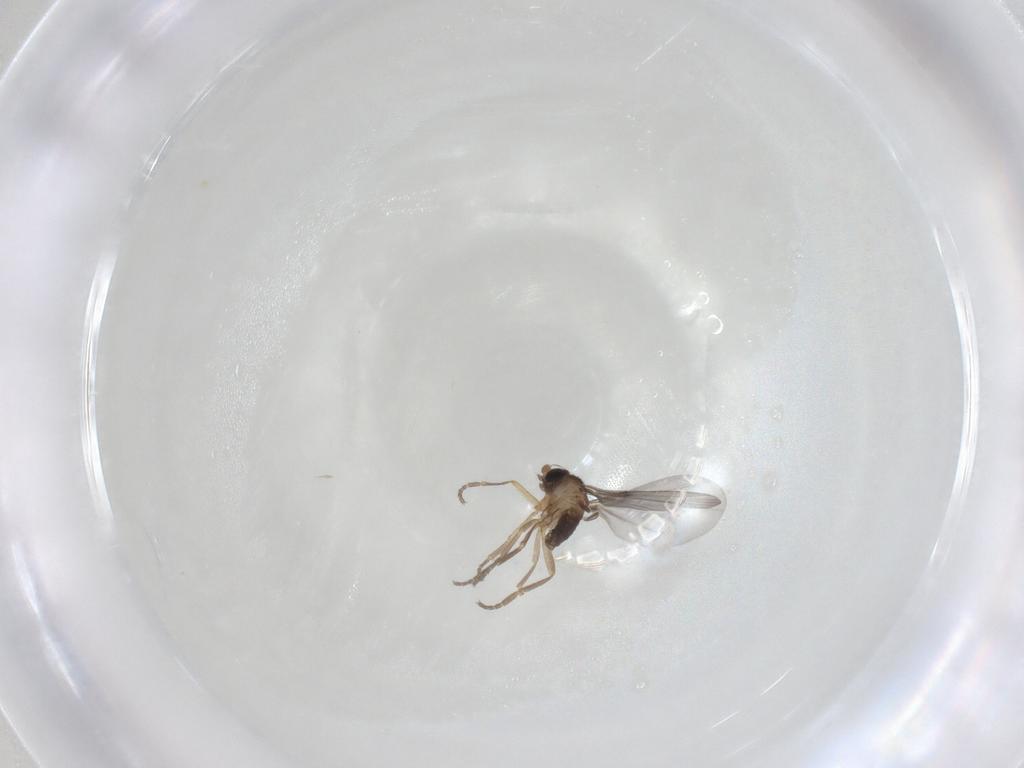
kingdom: Animalia
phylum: Arthropoda
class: Insecta
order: Diptera
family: Phoridae
